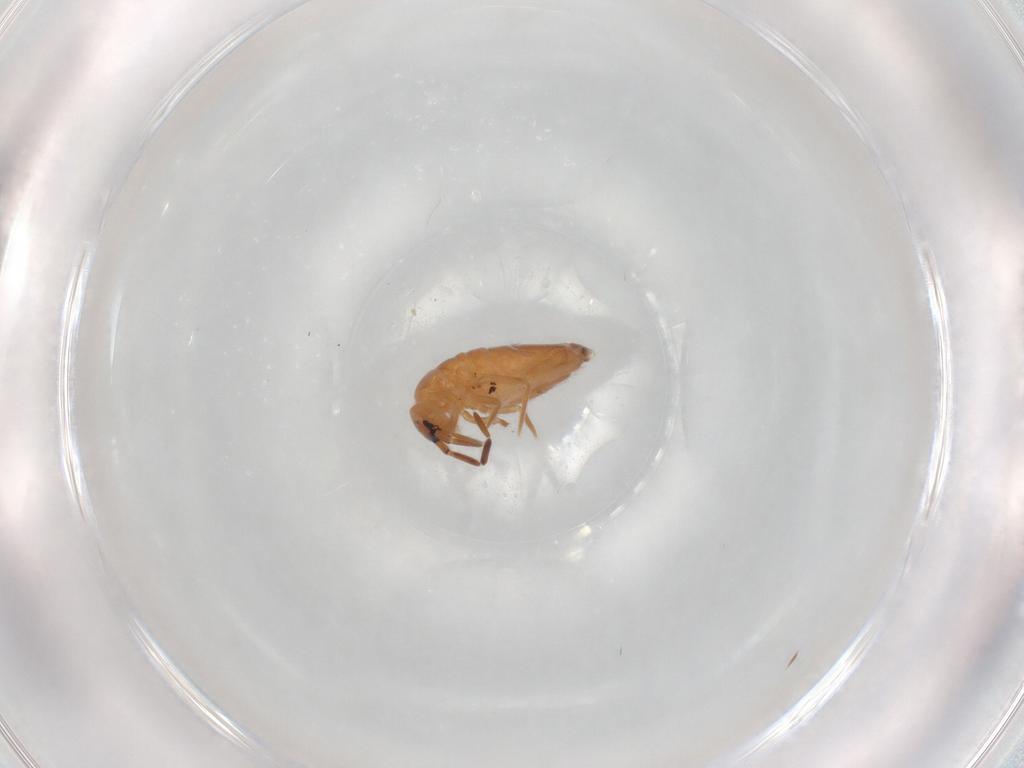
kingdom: Animalia
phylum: Arthropoda
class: Collembola
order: Entomobryomorpha
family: Entomobryidae
